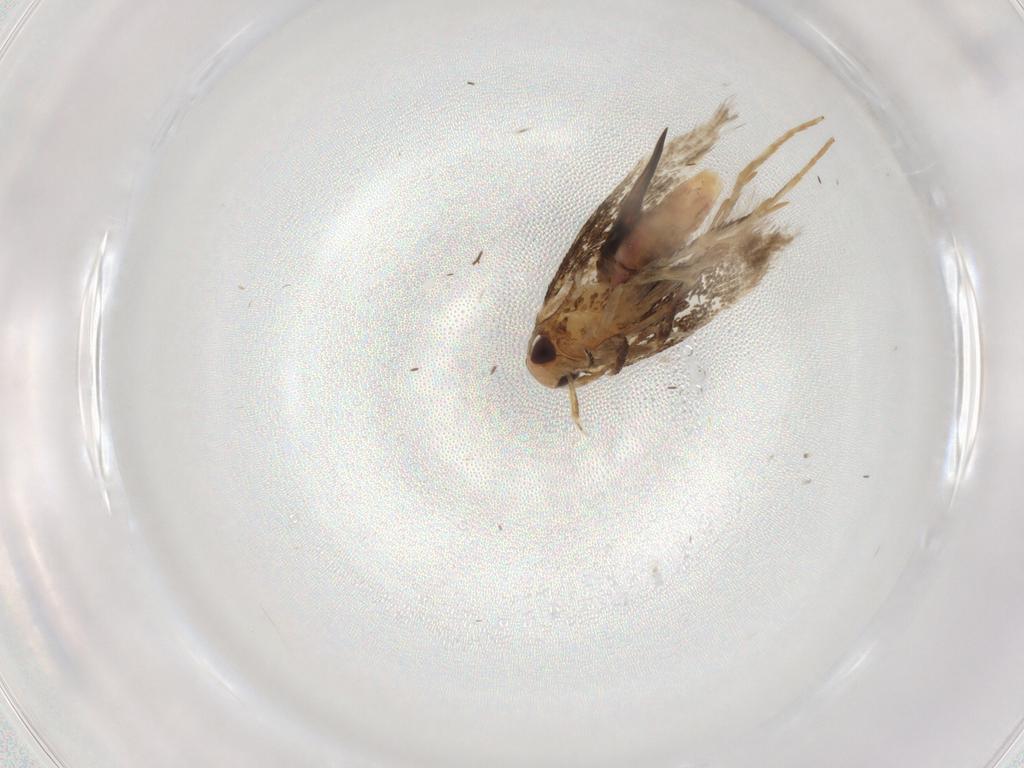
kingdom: Animalia
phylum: Arthropoda
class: Insecta
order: Lepidoptera
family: Cosmopterigidae
